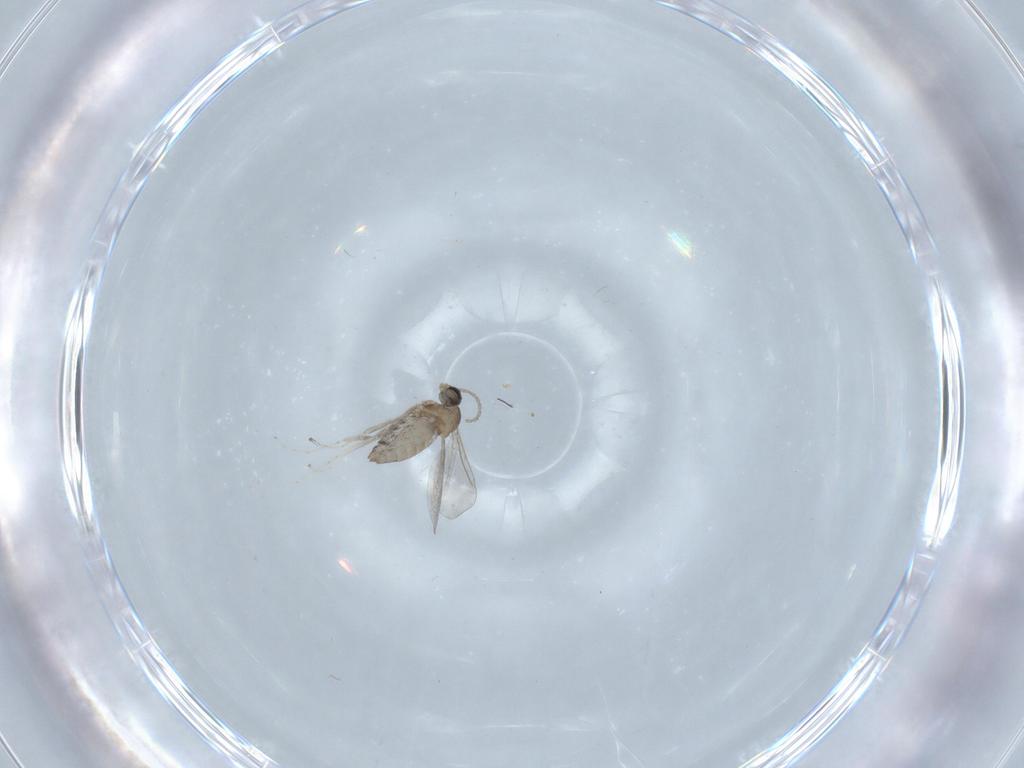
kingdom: Animalia
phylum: Arthropoda
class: Insecta
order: Diptera
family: Cecidomyiidae
